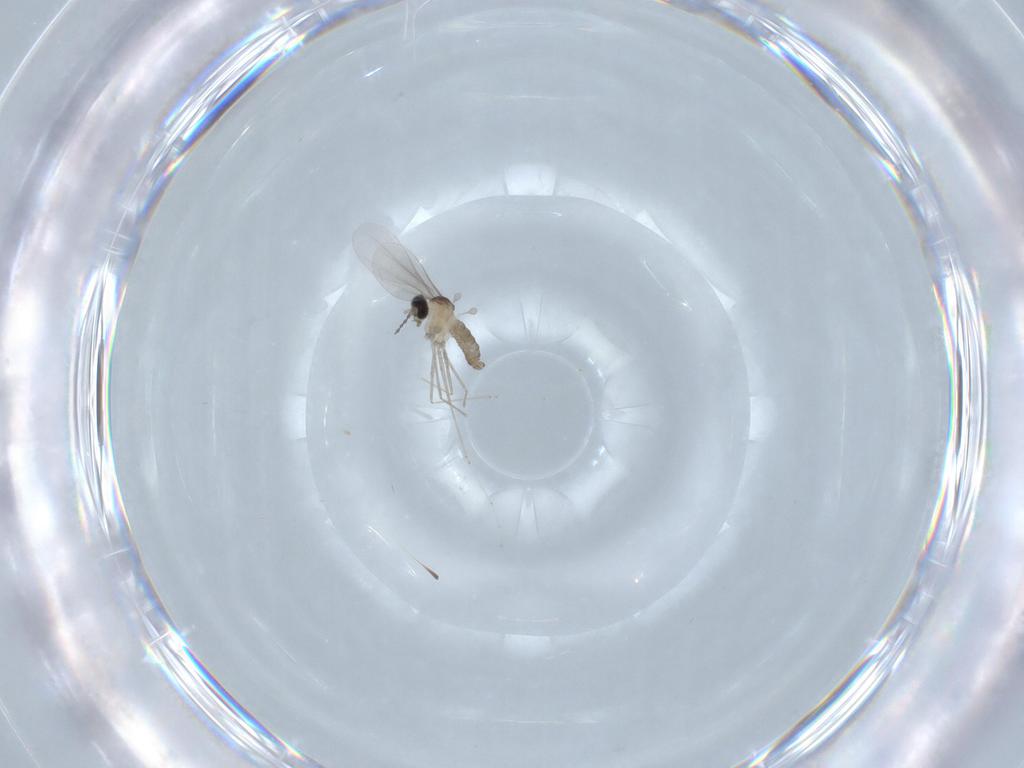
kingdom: Animalia
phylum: Arthropoda
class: Insecta
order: Diptera
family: Cecidomyiidae
